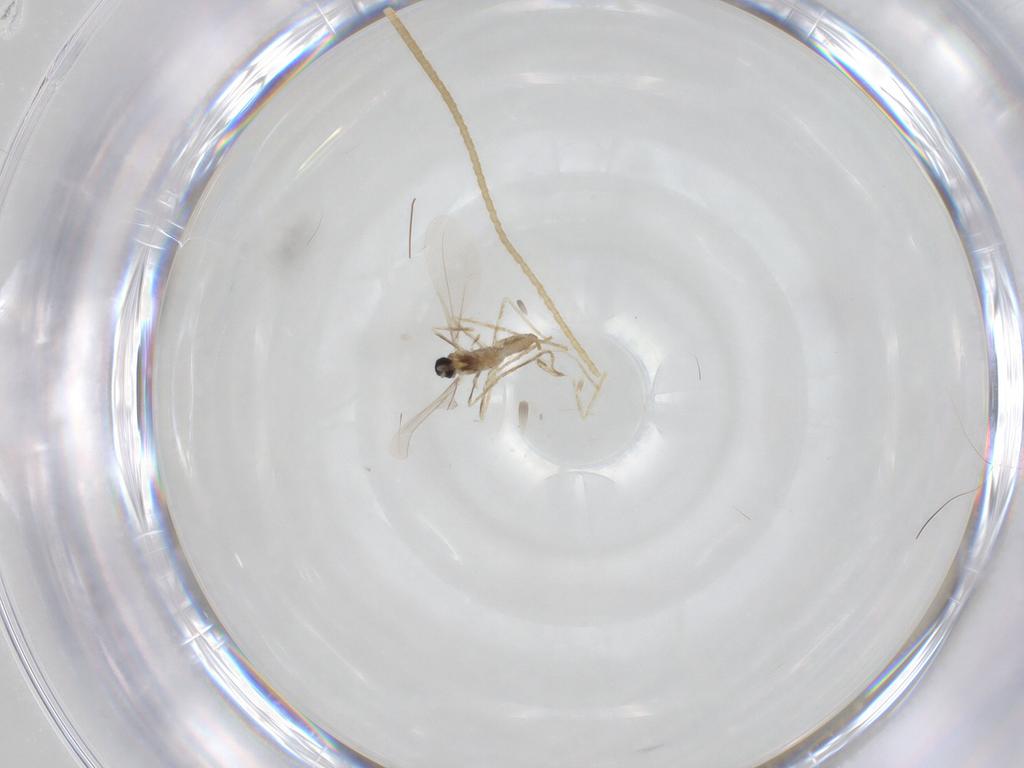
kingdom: Animalia
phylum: Arthropoda
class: Insecta
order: Diptera
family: Cecidomyiidae
